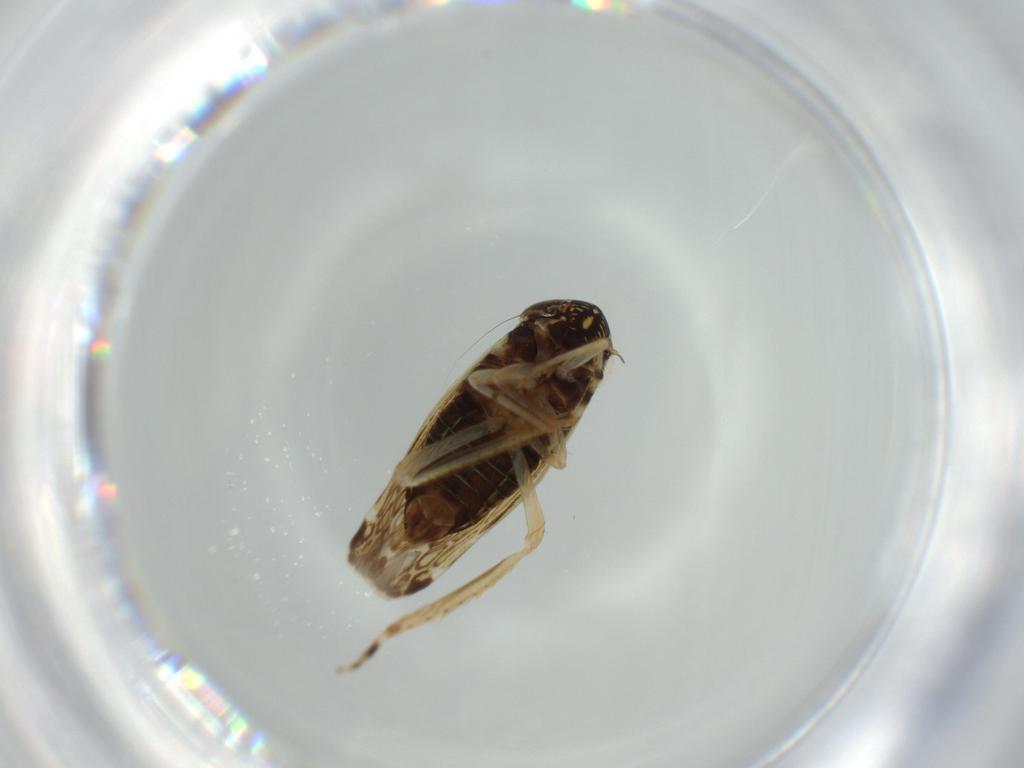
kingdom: Animalia
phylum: Arthropoda
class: Insecta
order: Hemiptera
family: Cicadellidae
